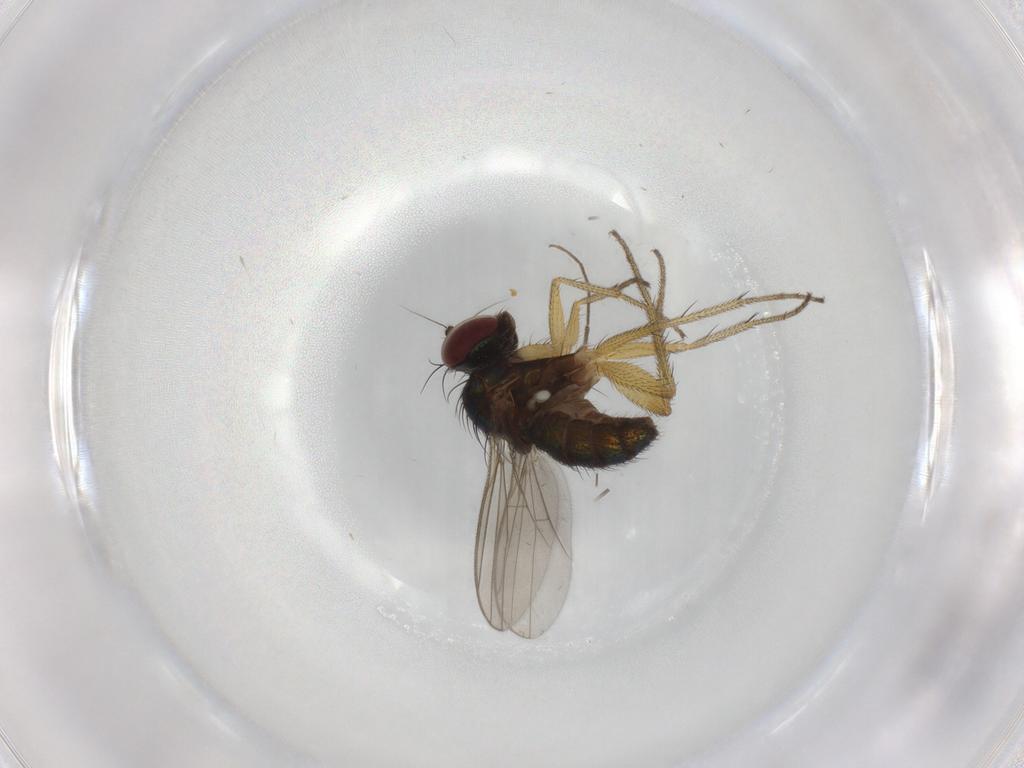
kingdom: Animalia
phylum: Arthropoda
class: Insecta
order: Diptera
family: Chironomidae
